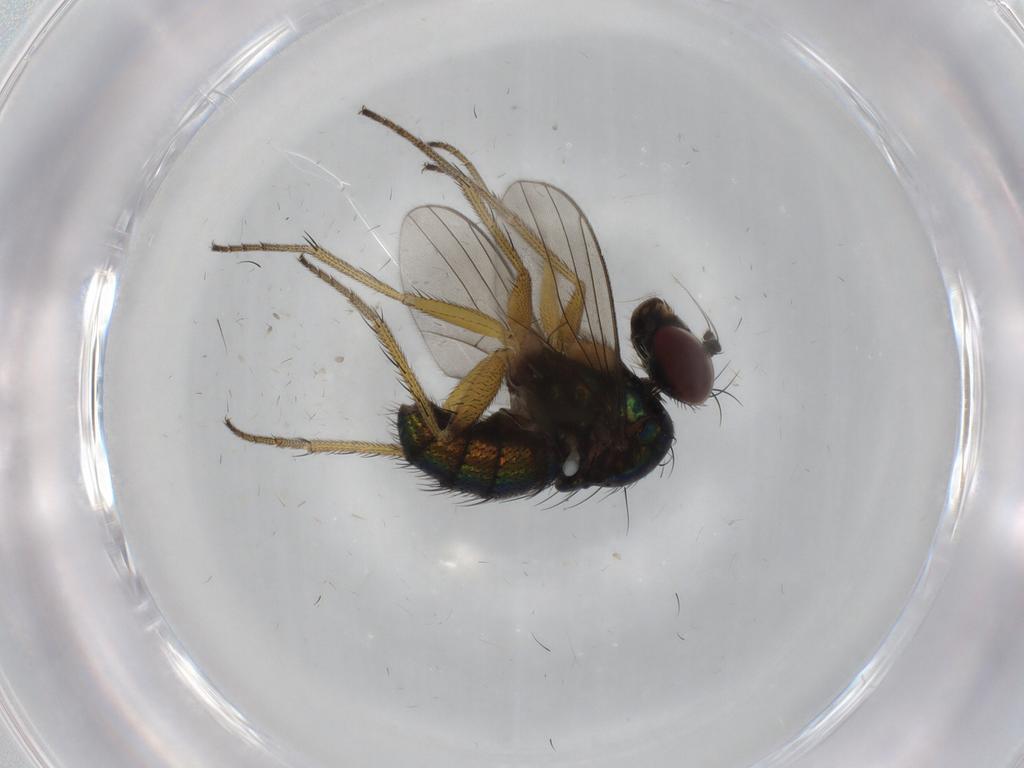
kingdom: Animalia
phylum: Arthropoda
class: Insecta
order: Diptera
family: Dolichopodidae
